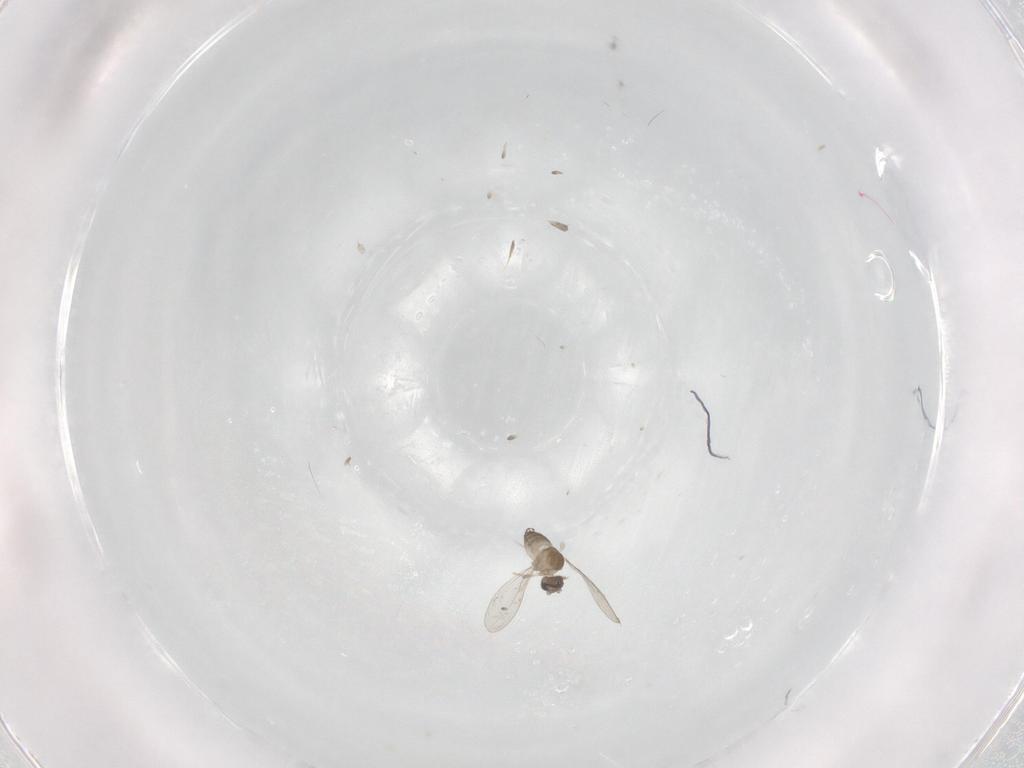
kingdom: Animalia
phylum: Arthropoda
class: Insecta
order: Diptera
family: Cecidomyiidae
